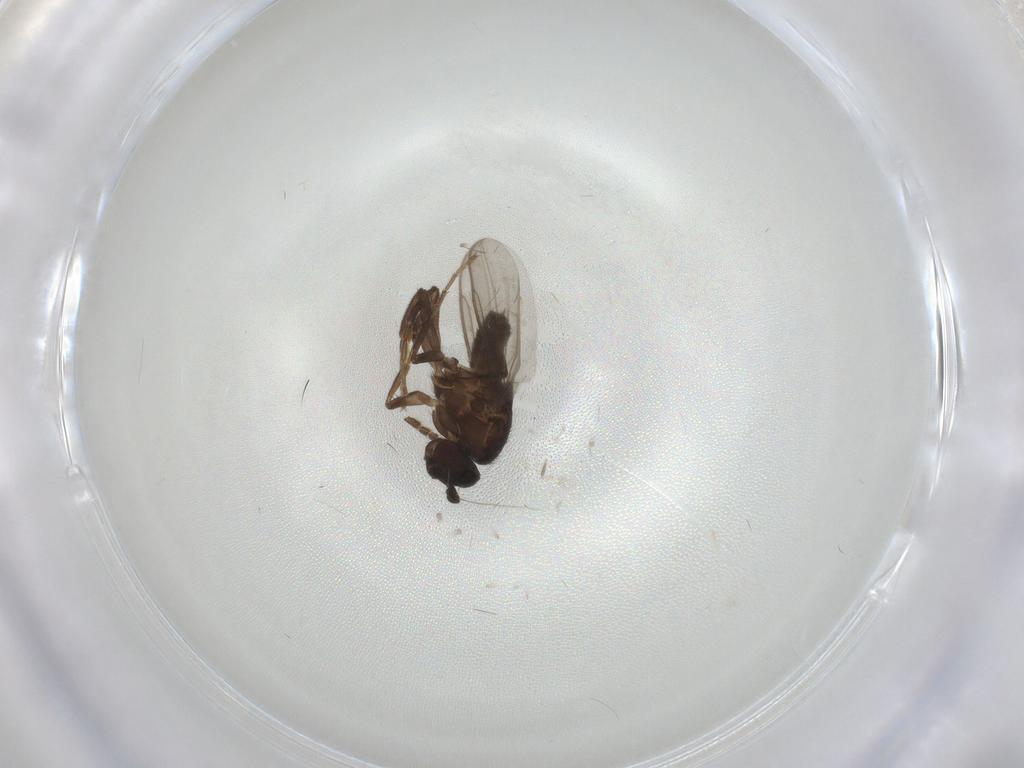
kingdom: Animalia
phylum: Arthropoda
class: Insecta
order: Diptera
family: Sphaeroceridae
